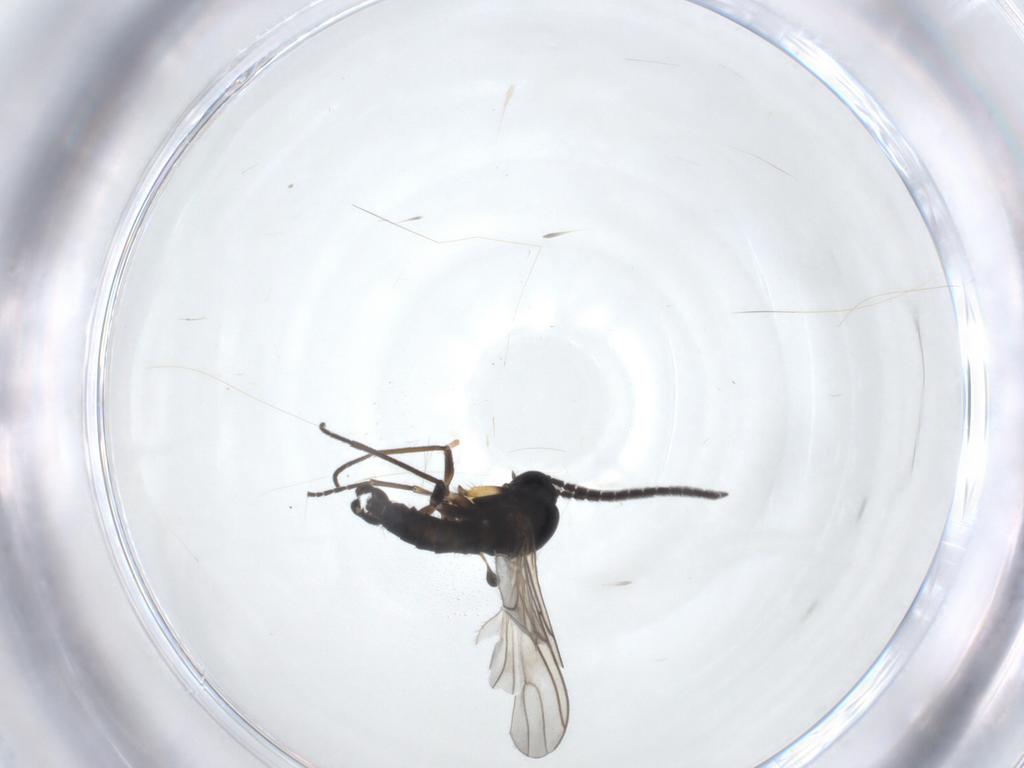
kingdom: Animalia
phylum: Arthropoda
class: Insecta
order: Diptera
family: Sciaridae
